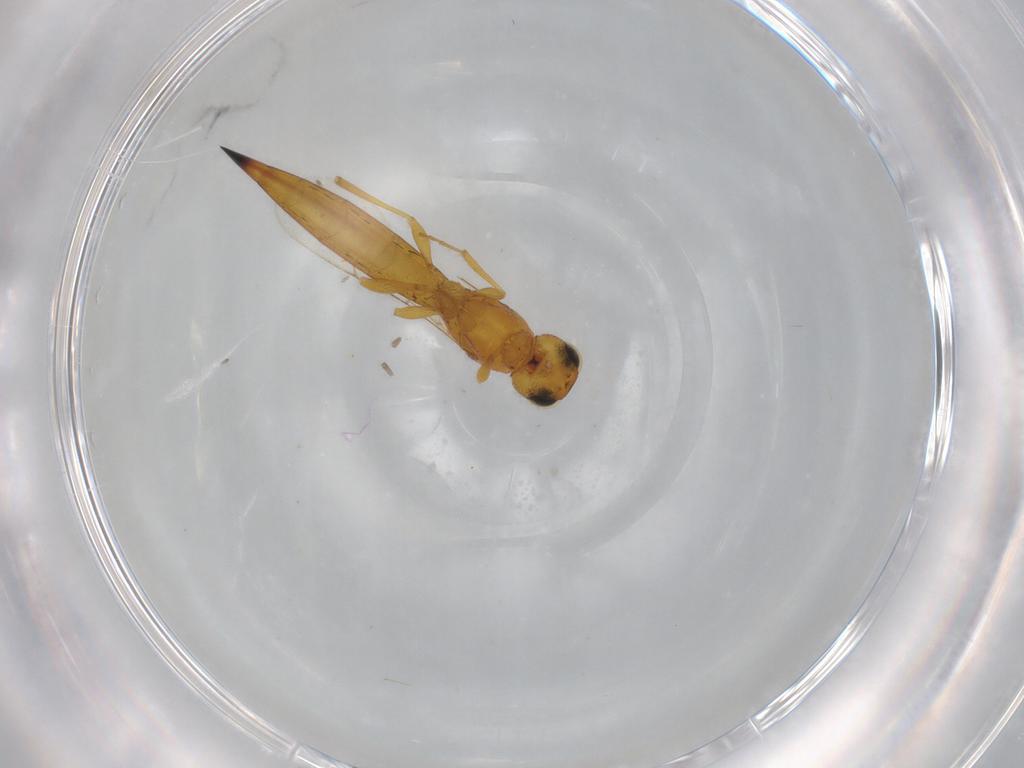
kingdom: Animalia
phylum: Arthropoda
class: Insecta
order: Hymenoptera
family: Scelionidae
